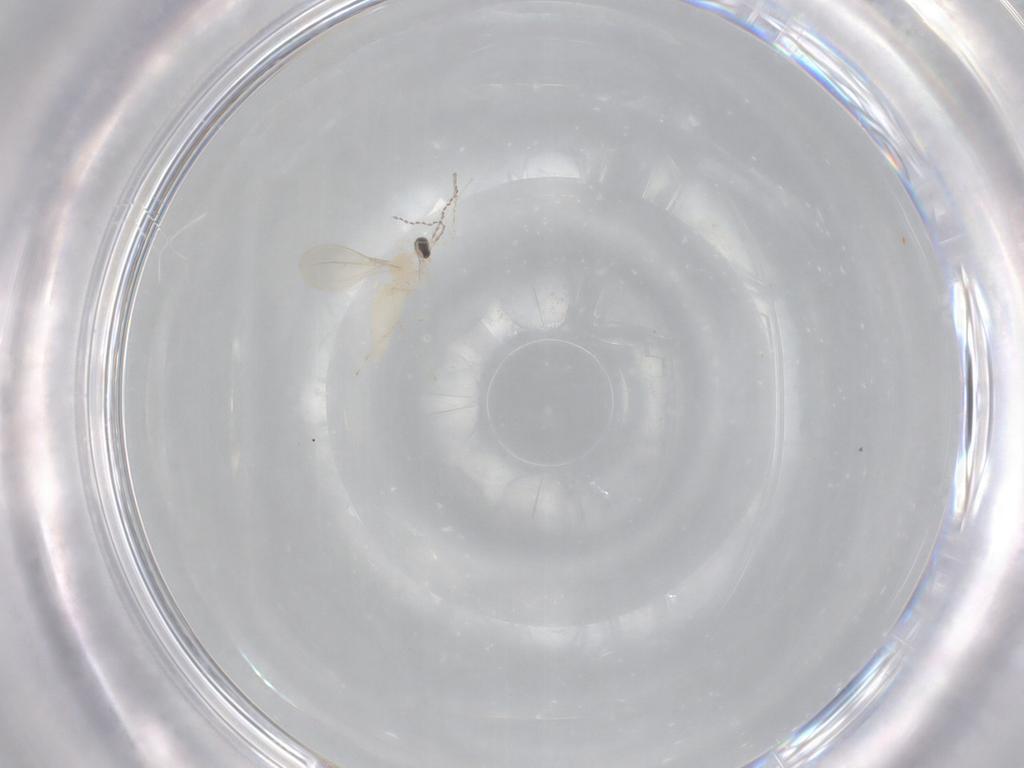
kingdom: Animalia
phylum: Arthropoda
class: Insecta
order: Diptera
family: Cecidomyiidae
